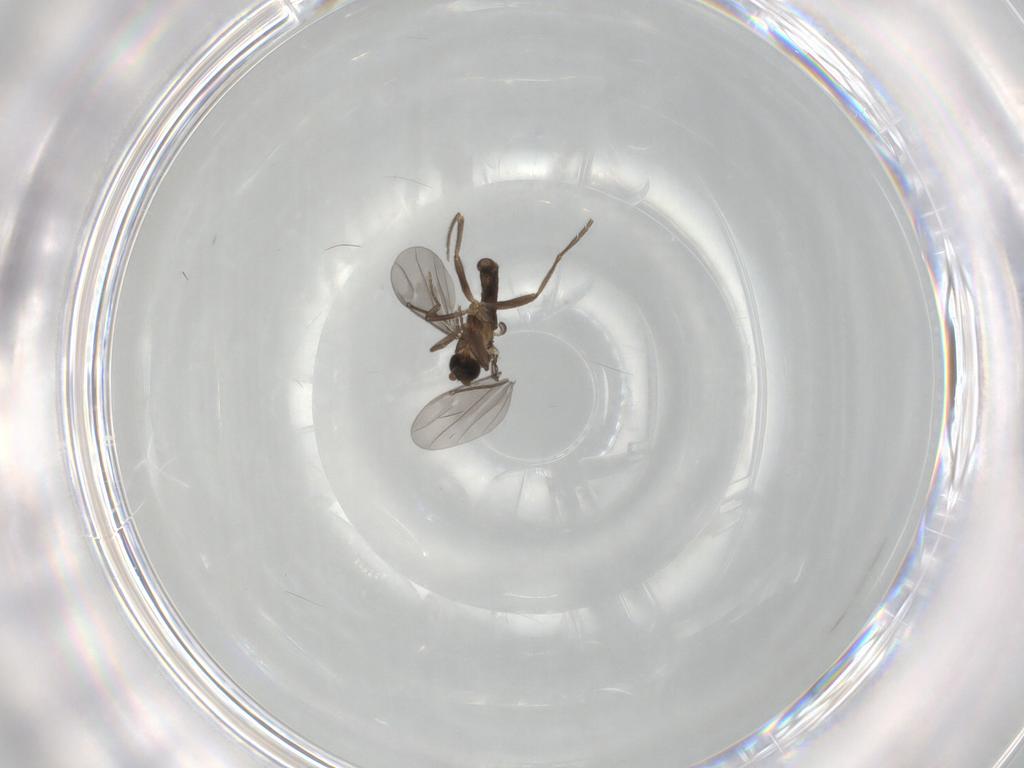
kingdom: Animalia
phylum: Arthropoda
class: Insecta
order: Diptera
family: Phoridae
